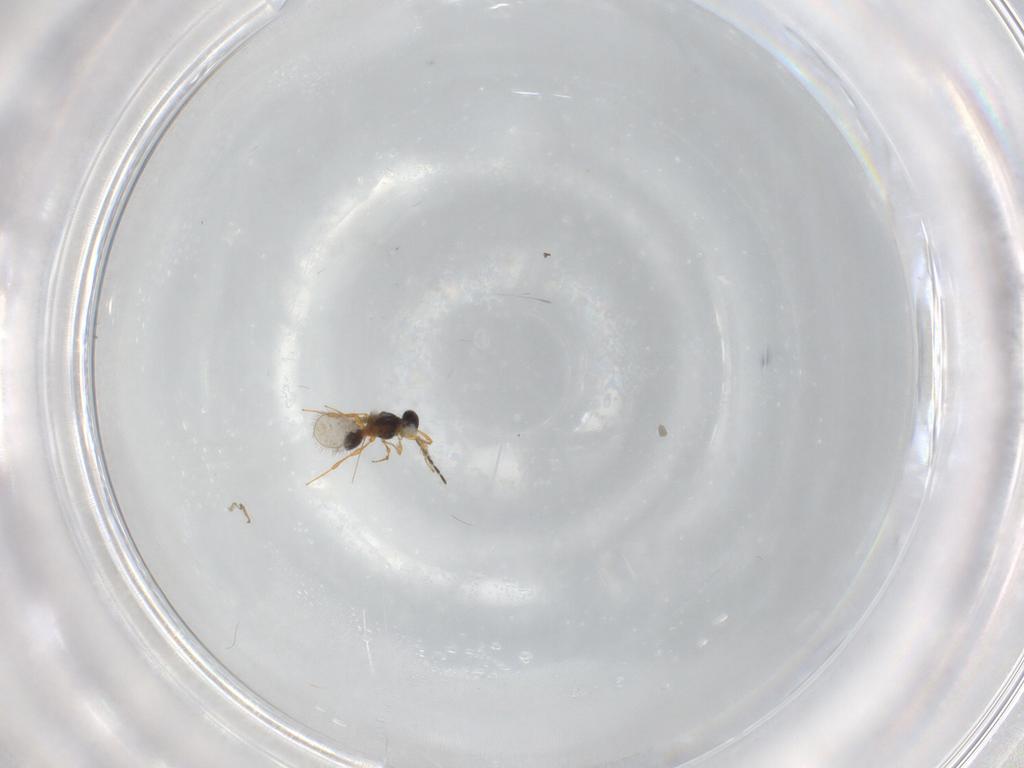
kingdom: Animalia
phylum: Arthropoda
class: Insecta
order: Hymenoptera
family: Platygastridae
